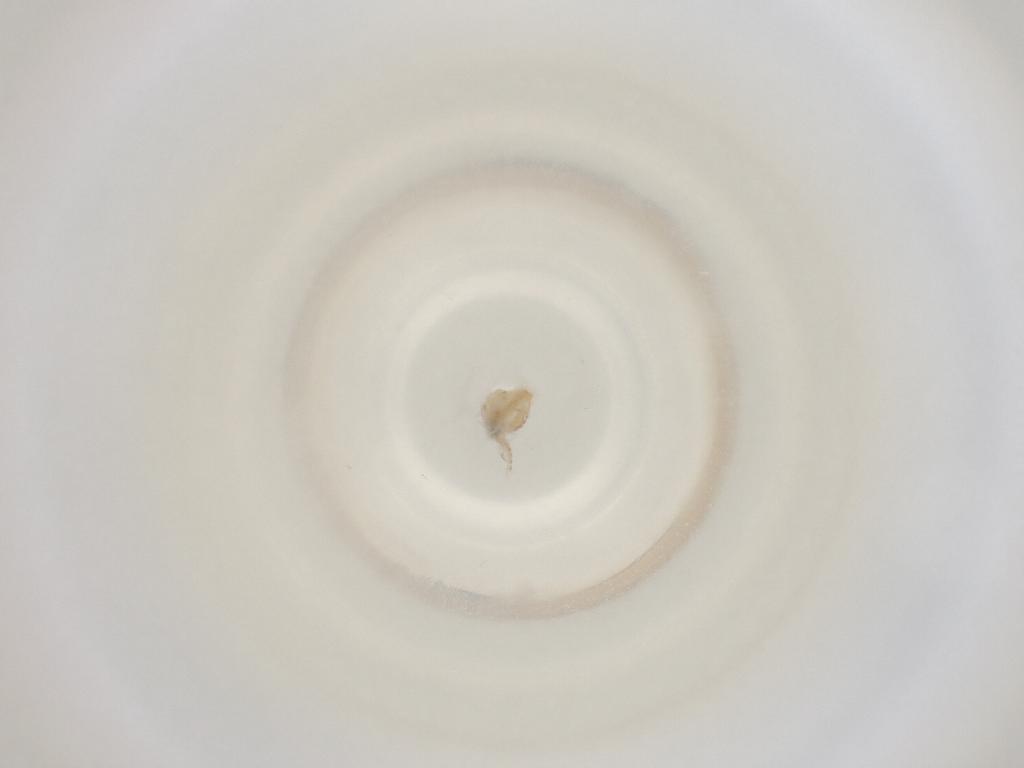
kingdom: Animalia
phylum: Arthropoda
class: Insecta
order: Diptera
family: Cecidomyiidae
